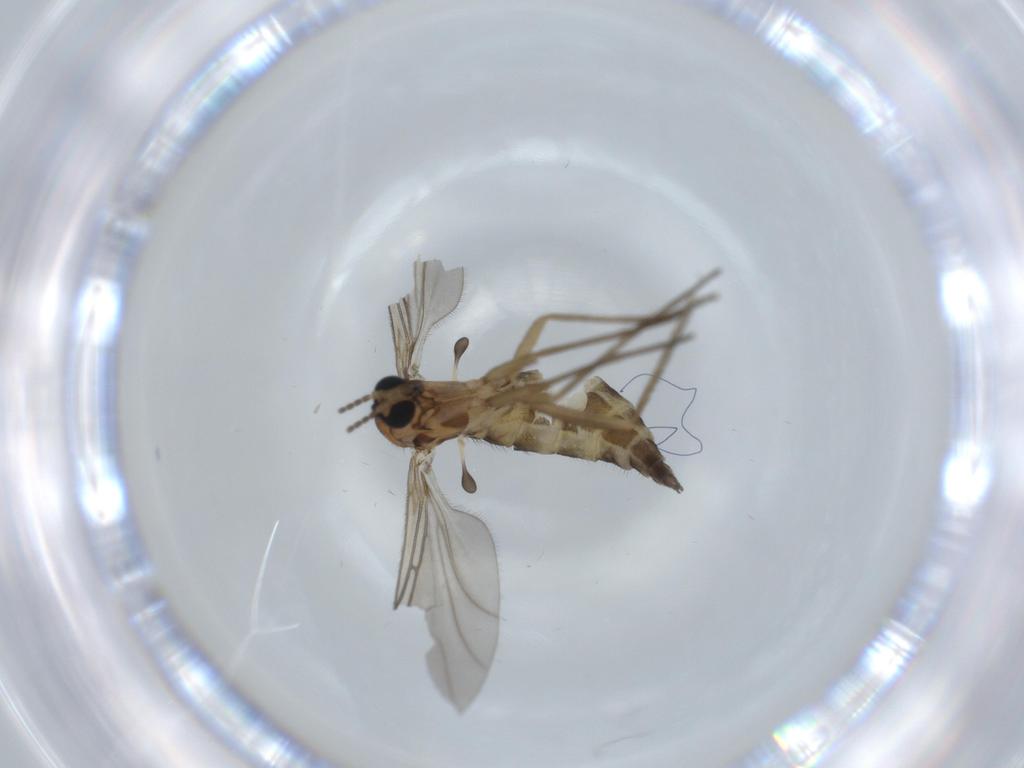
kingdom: Animalia
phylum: Arthropoda
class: Insecta
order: Diptera
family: Sciaridae
